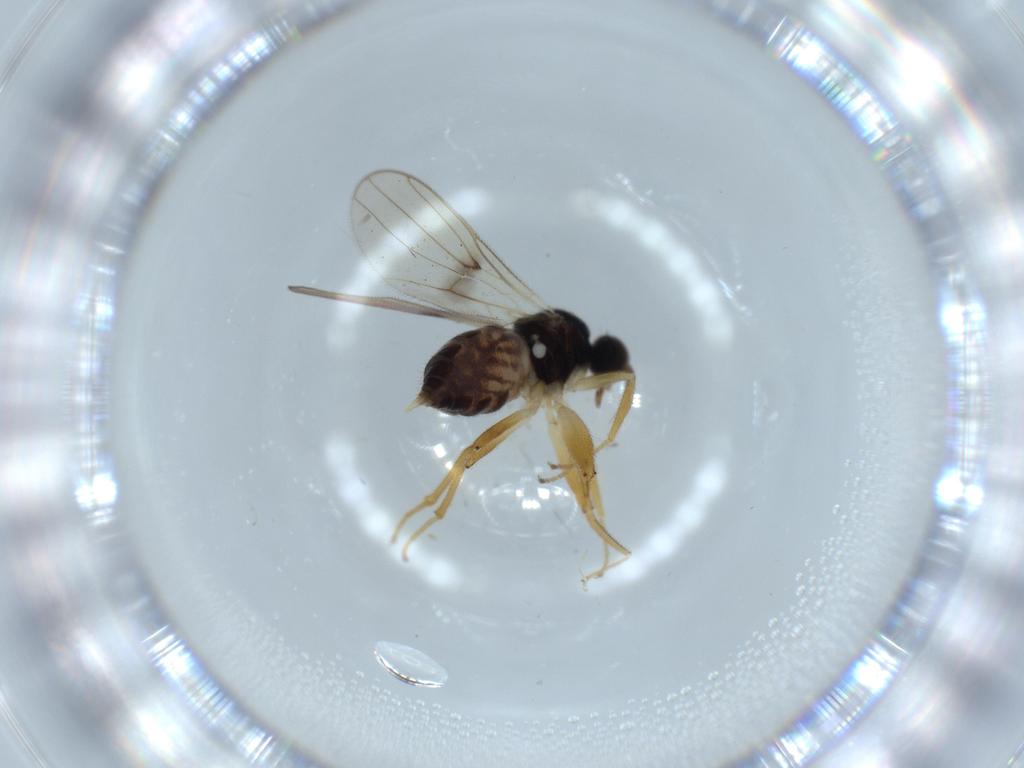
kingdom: Animalia
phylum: Arthropoda
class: Insecta
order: Diptera
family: Hybotidae
